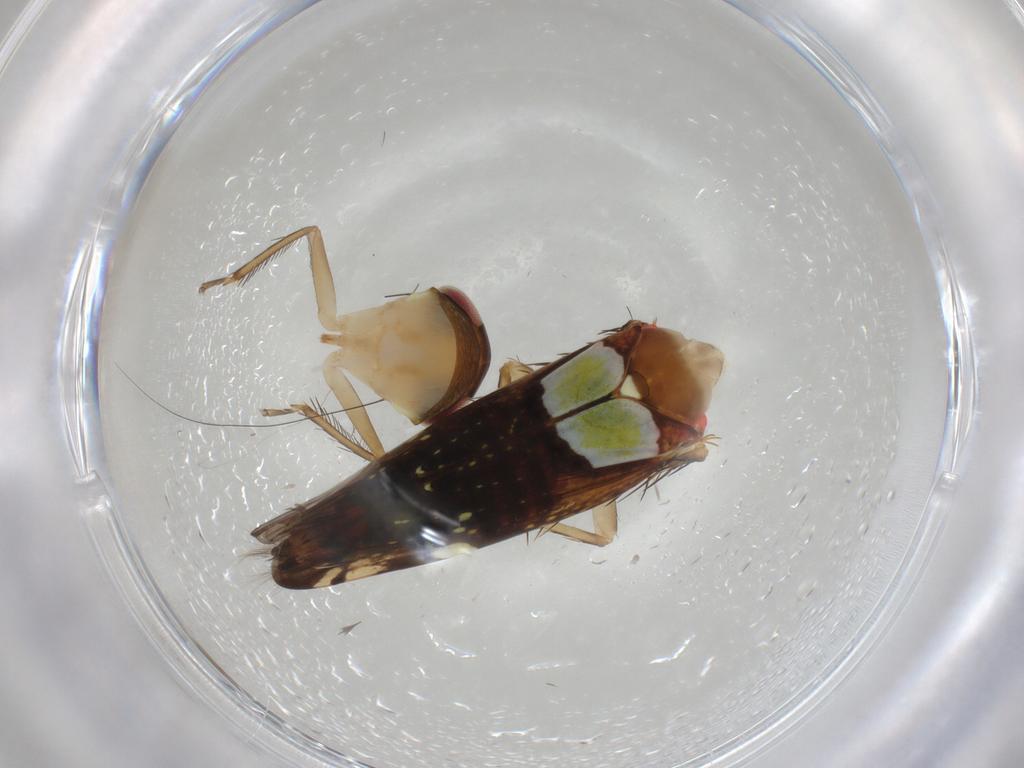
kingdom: Animalia
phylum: Arthropoda
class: Insecta
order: Hemiptera
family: Cicadellidae
